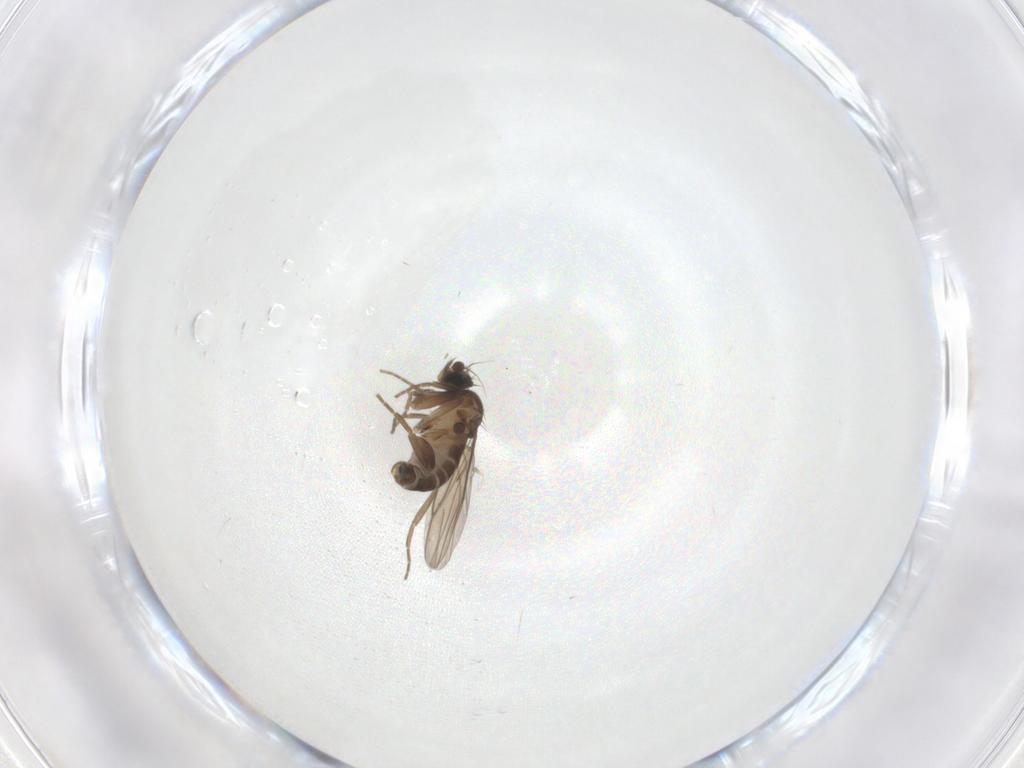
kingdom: Animalia
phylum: Arthropoda
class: Insecta
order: Diptera
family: Phoridae
